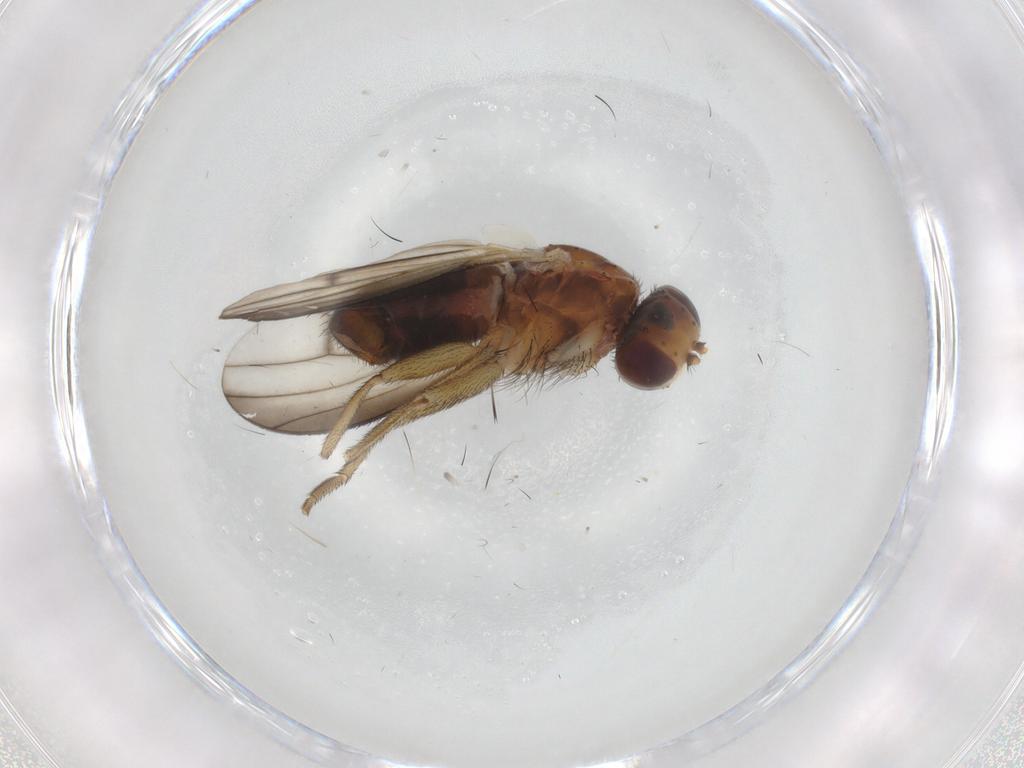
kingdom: Animalia
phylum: Arthropoda
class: Insecta
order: Diptera
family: Heleomyzidae
